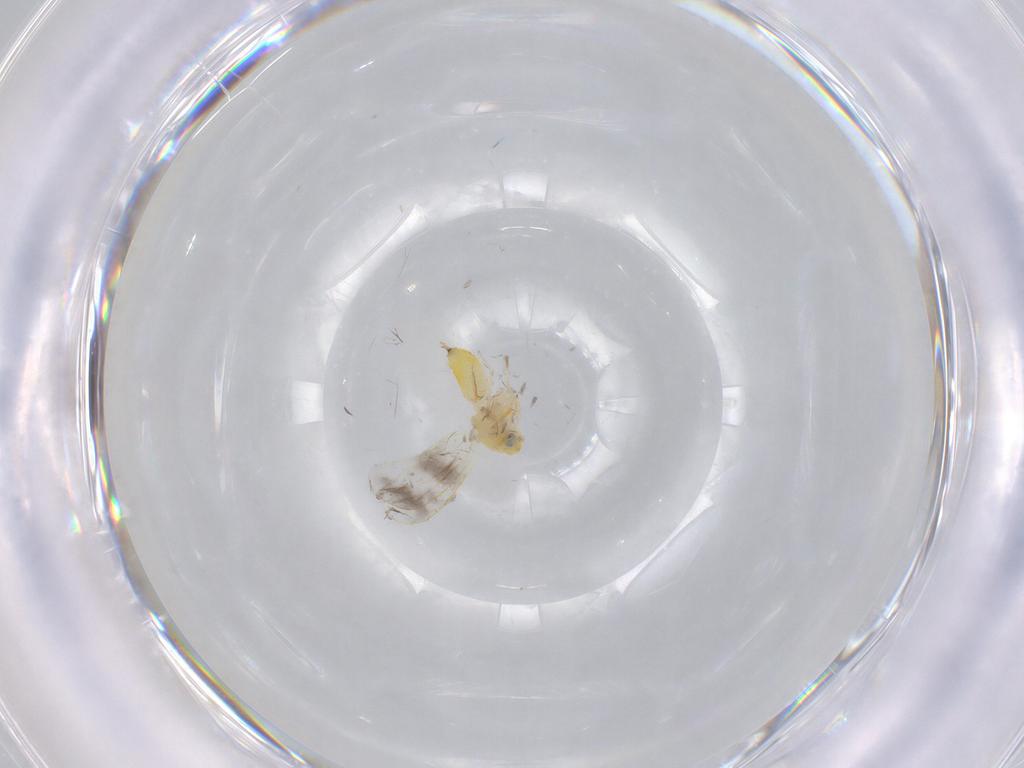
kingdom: Animalia
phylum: Arthropoda
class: Insecta
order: Hemiptera
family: Aleyrodidae
